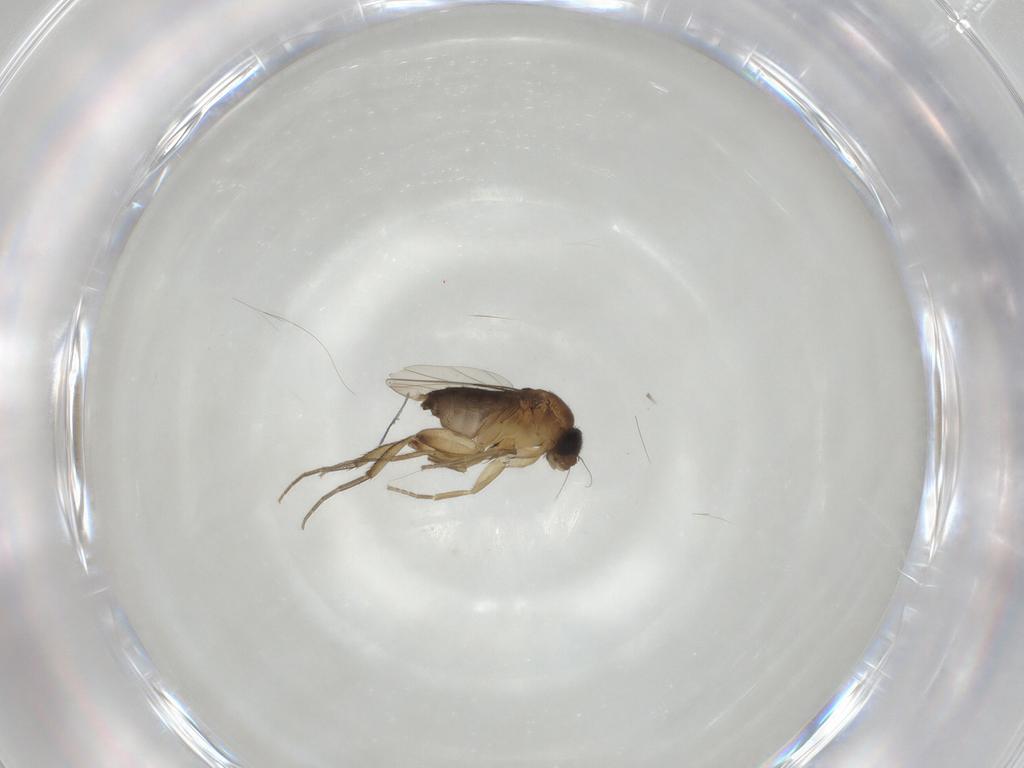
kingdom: Animalia
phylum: Arthropoda
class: Insecta
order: Diptera
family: Phoridae
